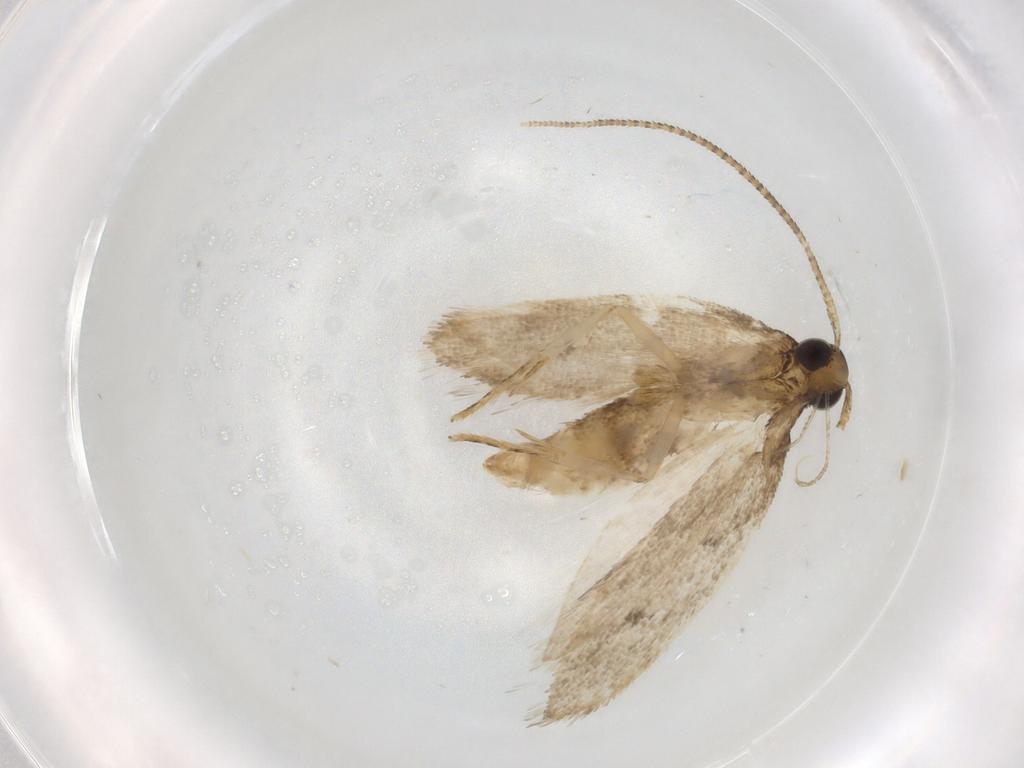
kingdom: Animalia
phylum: Arthropoda
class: Insecta
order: Lepidoptera
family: Lecithoceridae
